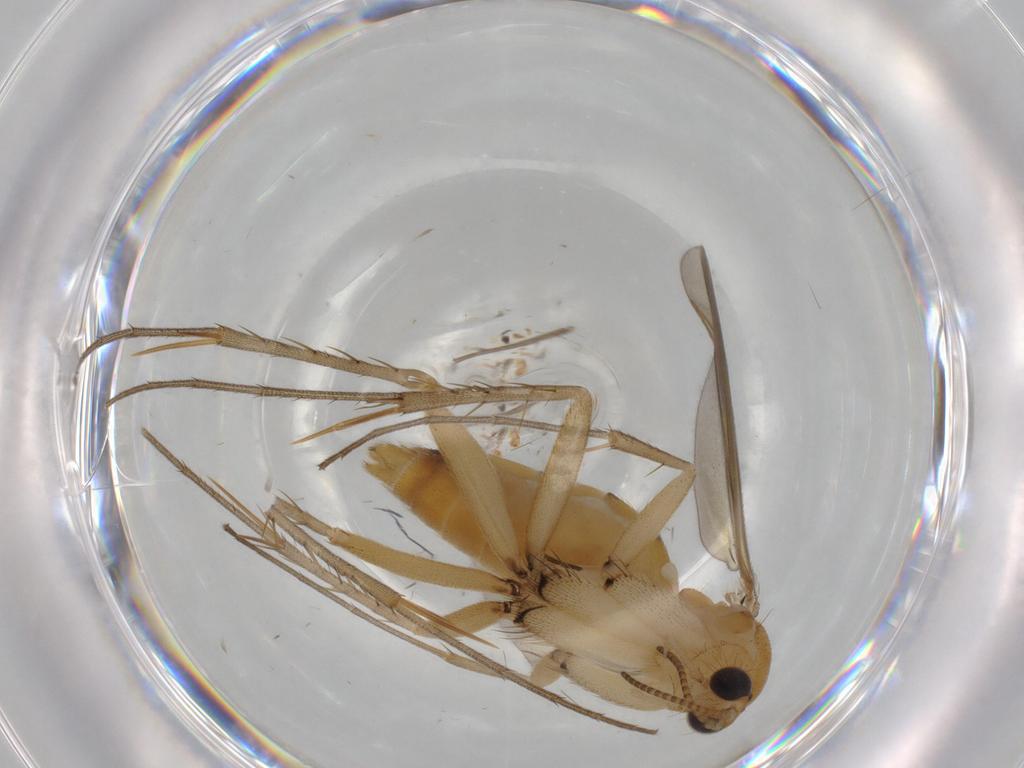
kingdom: Animalia
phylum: Arthropoda
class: Insecta
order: Diptera
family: Mycetophilidae
